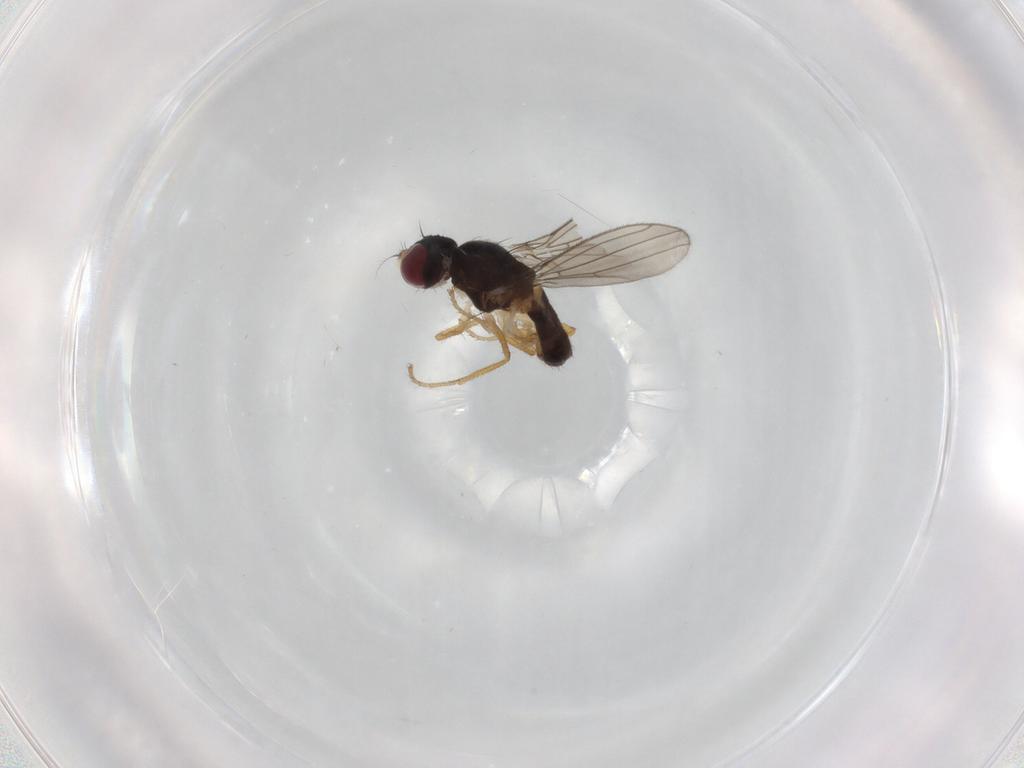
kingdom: Animalia
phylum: Arthropoda
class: Insecta
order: Diptera
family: Anthomyzidae
